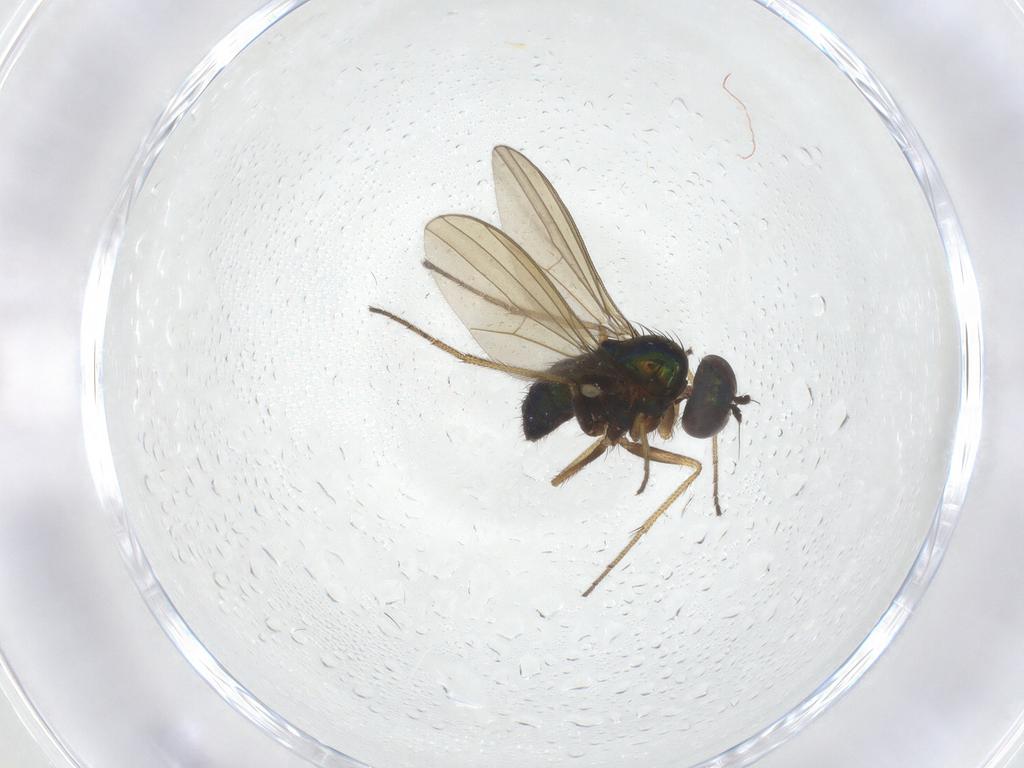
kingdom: Animalia
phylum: Arthropoda
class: Insecta
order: Diptera
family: Dolichopodidae
